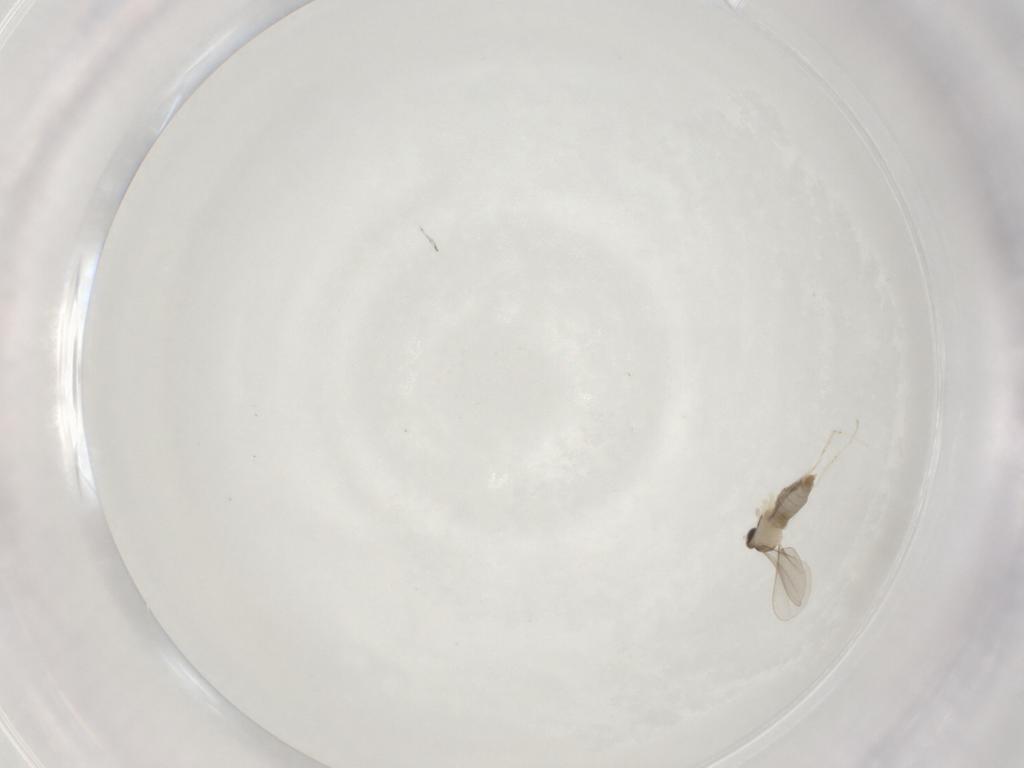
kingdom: Animalia
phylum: Arthropoda
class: Insecta
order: Diptera
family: Cecidomyiidae
